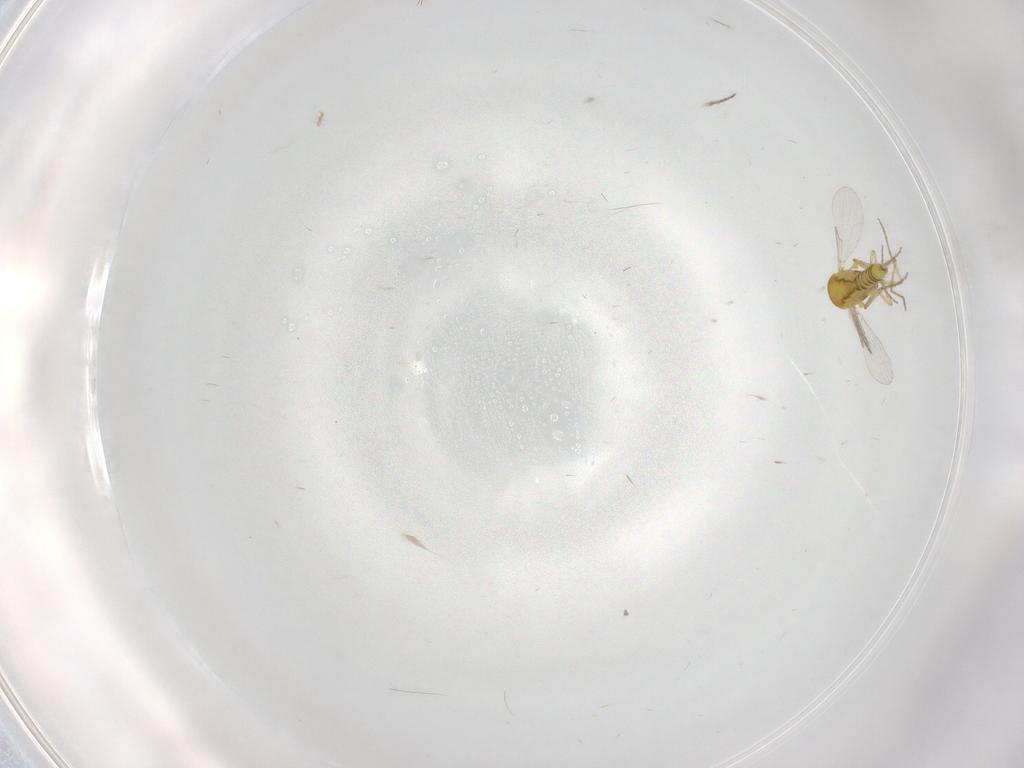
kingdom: Animalia
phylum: Arthropoda
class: Insecta
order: Diptera
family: Ceratopogonidae
